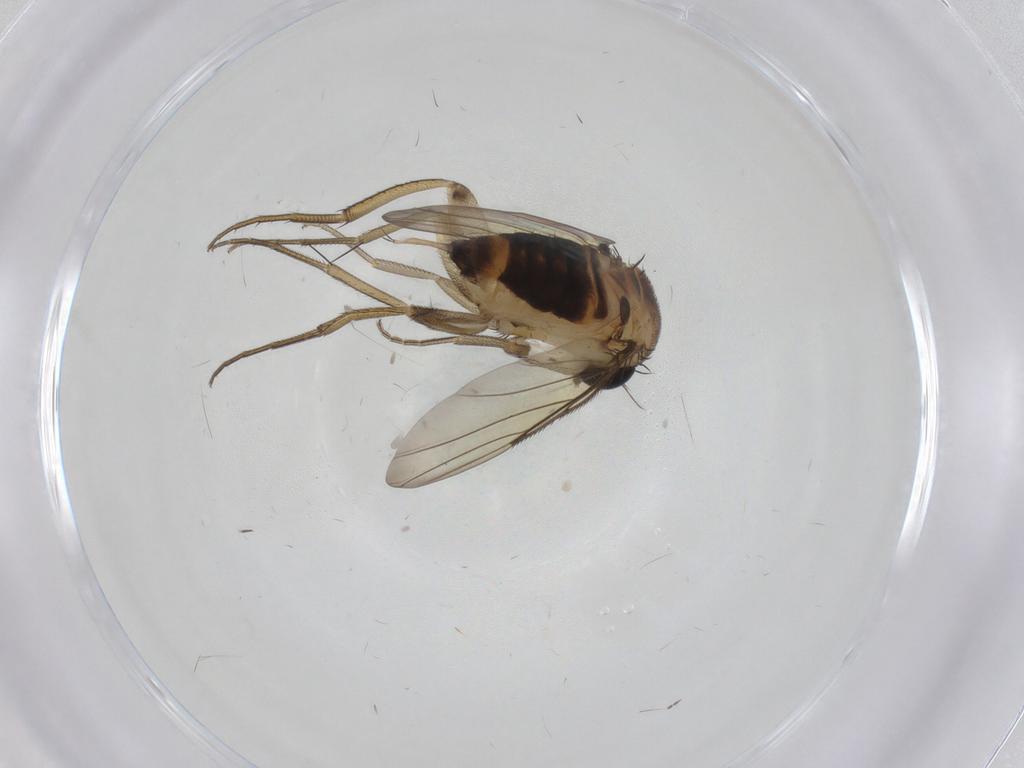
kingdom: Animalia
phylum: Arthropoda
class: Insecta
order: Diptera
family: Phoridae
